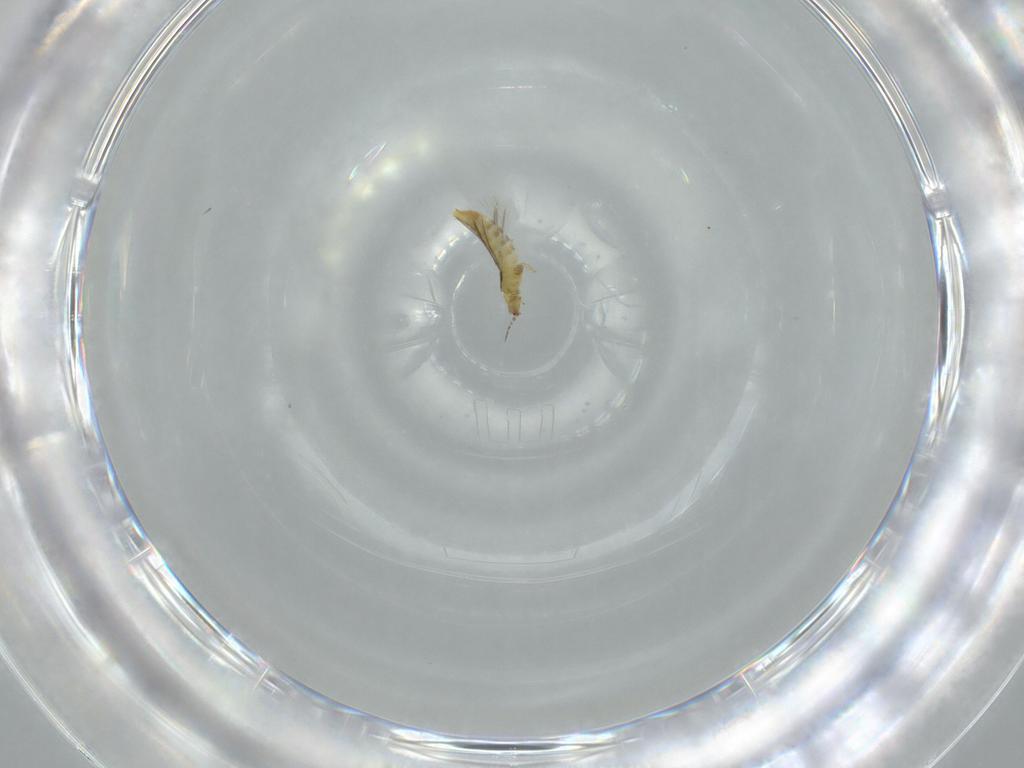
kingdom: Animalia
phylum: Arthropoda
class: Insecta
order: Thysanoptera
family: Thripidae
